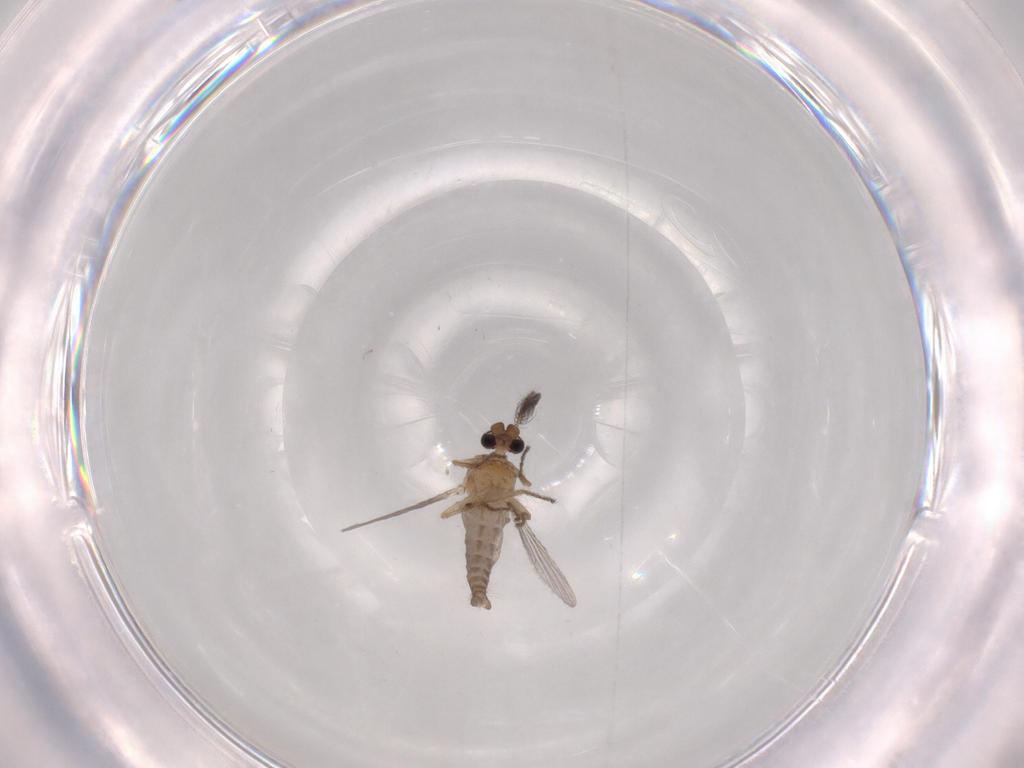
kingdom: Animalia
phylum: Arthropoda
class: Insecta
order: Diptera
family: Ceratopogonidae
